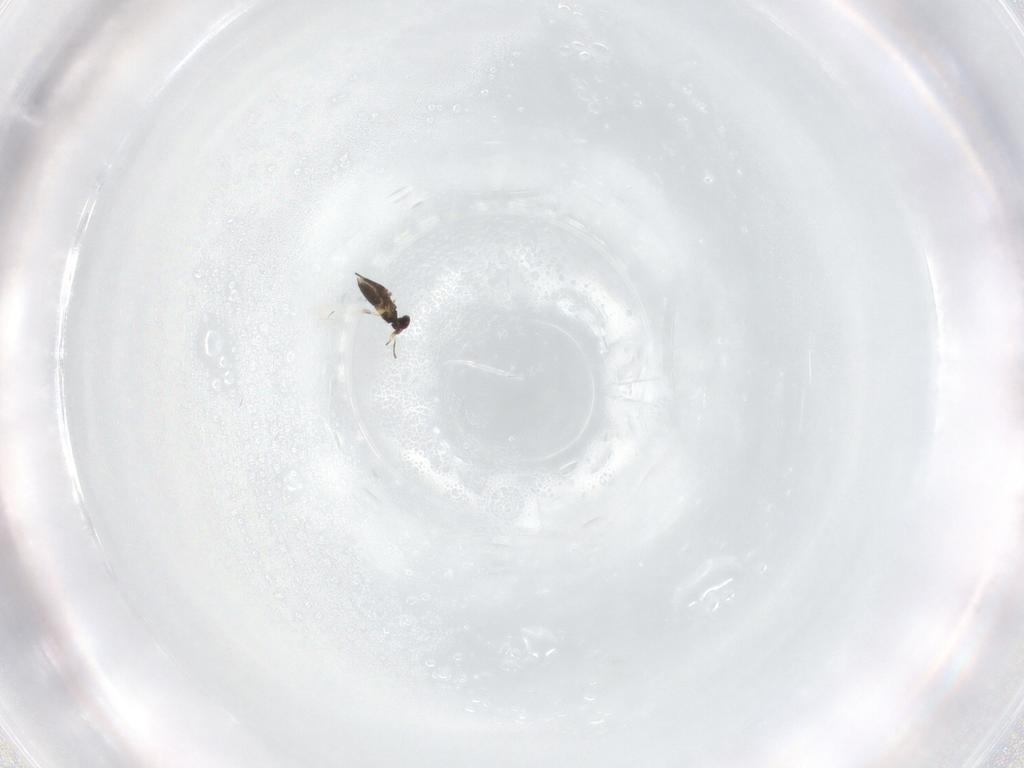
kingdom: Animalia
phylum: Arthropoda
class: Insecta
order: Hymenoptera
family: Mymaridae
